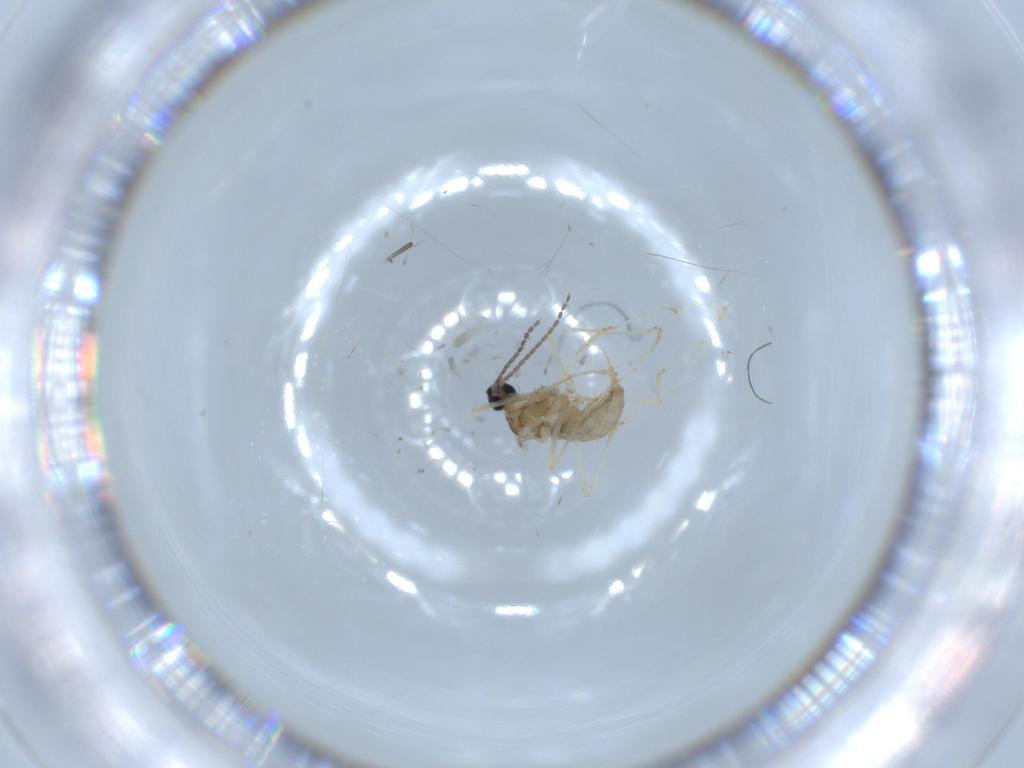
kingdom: Animalia
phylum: Arthropoda
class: Insecta
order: Diptera
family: Cecidomyiidae
